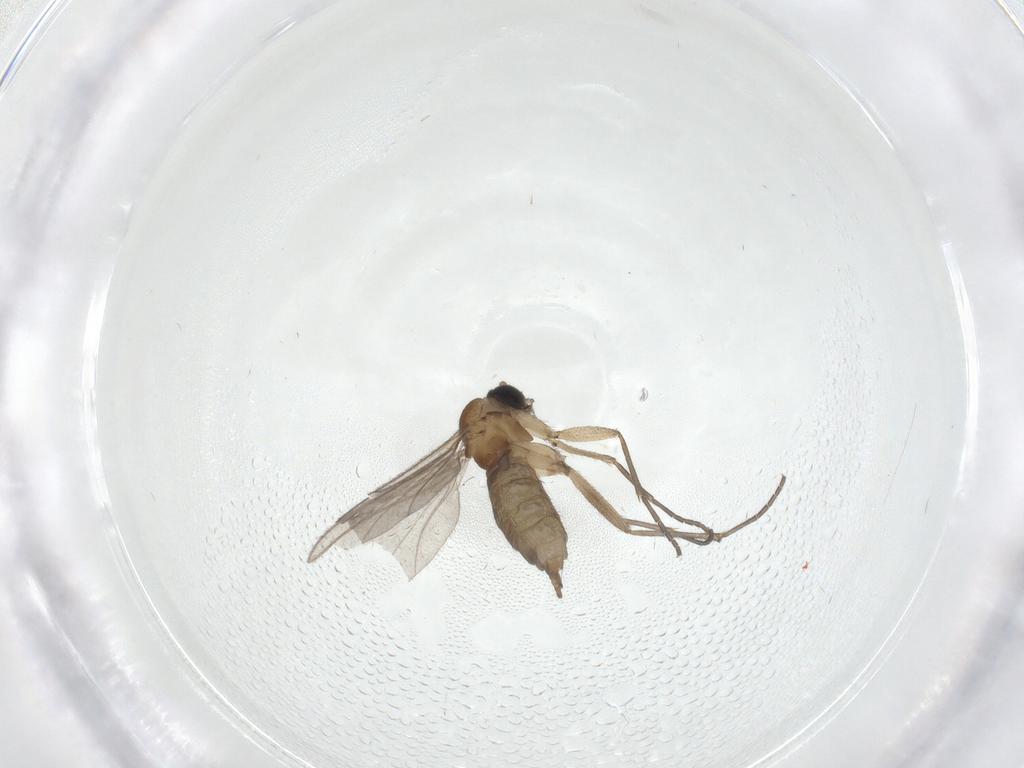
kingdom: Animalia
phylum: Arthropoda
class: Insecta
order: Diptera
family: Sciaridae
